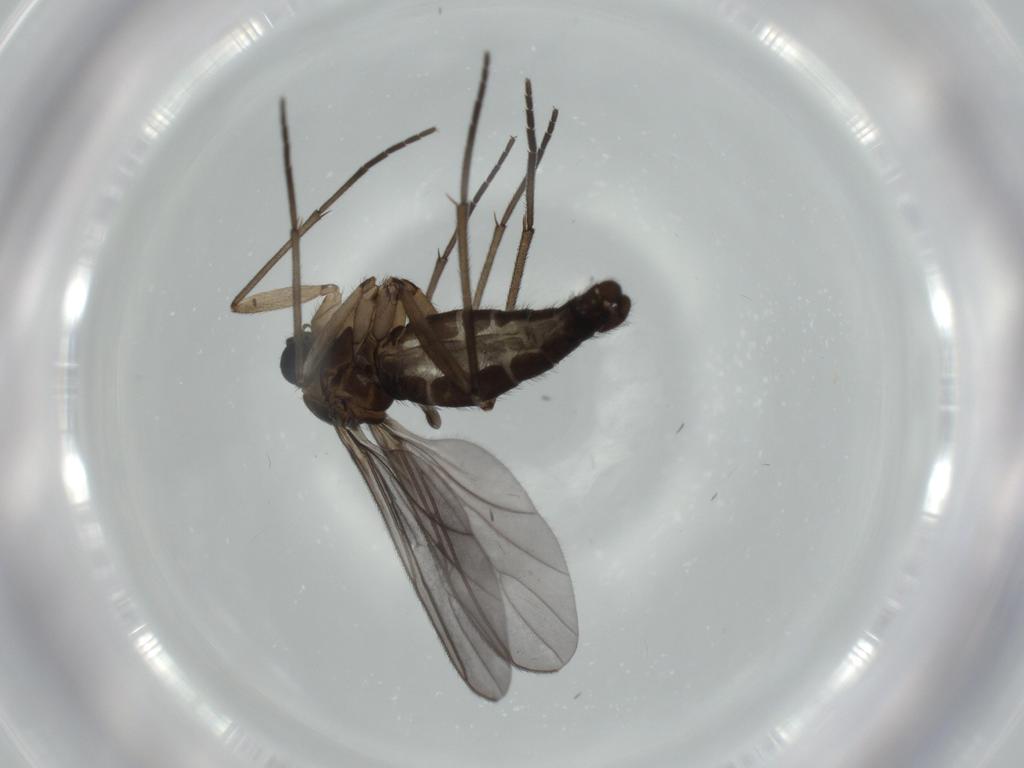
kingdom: Animalia
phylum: Arthropoda
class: Insecta
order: Diptera
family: Chironomidae
